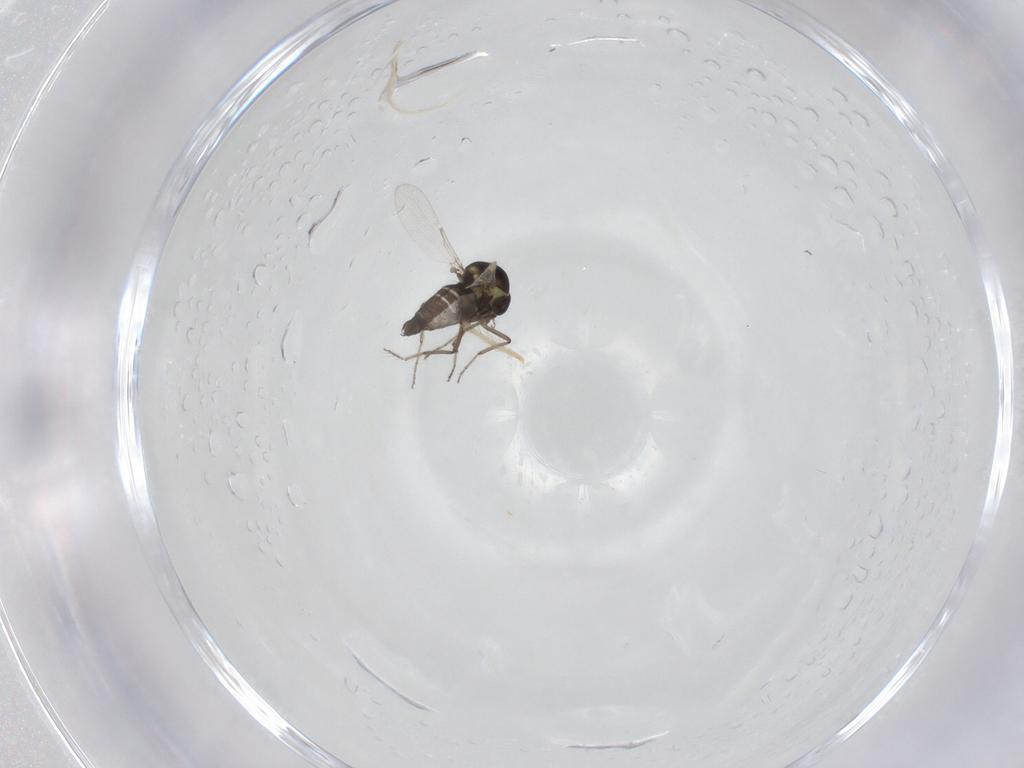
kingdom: Animalia
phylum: Arthropoda
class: Insecta
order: Diptera
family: Ceratopogonidae
